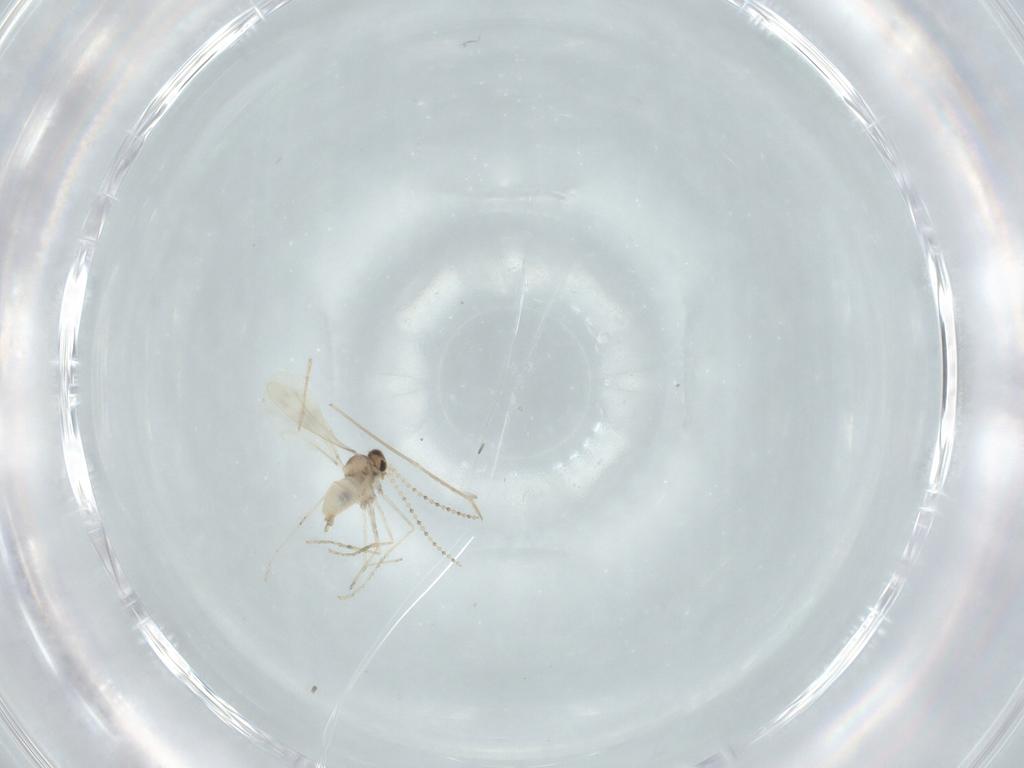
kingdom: Animalia
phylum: Arthropoda
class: Insecta
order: Diptera
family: Cecidomyiidae
